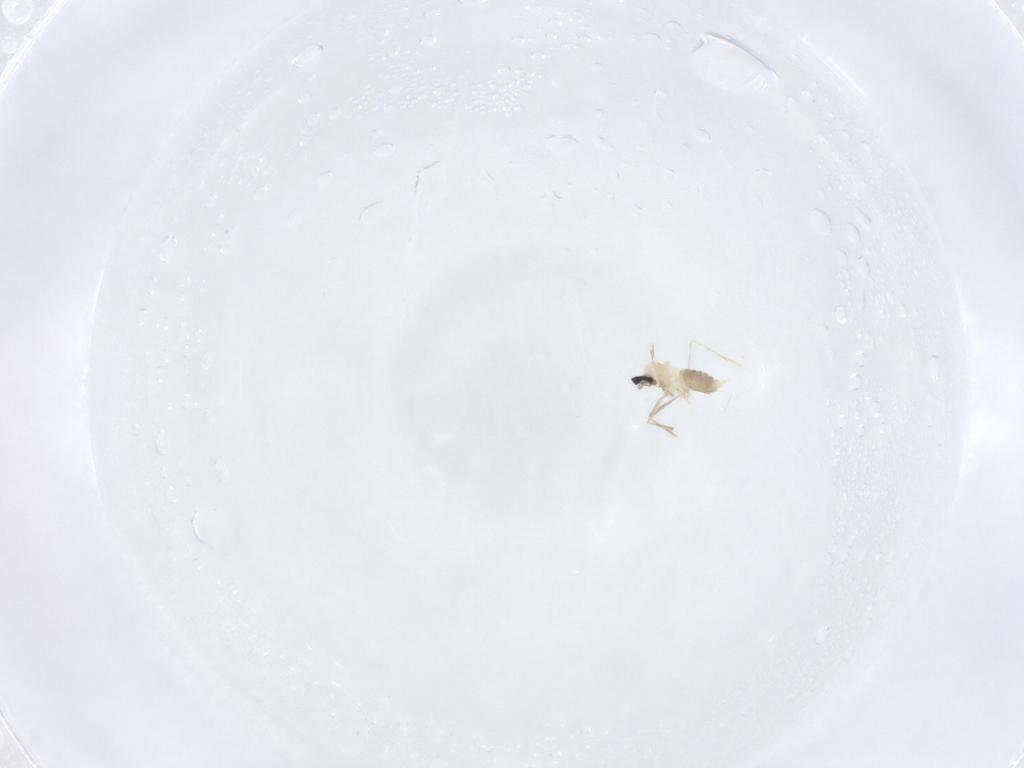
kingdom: Animalia
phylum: Arthropoda
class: Insecta
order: Diptera
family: Cecidomyiidae
